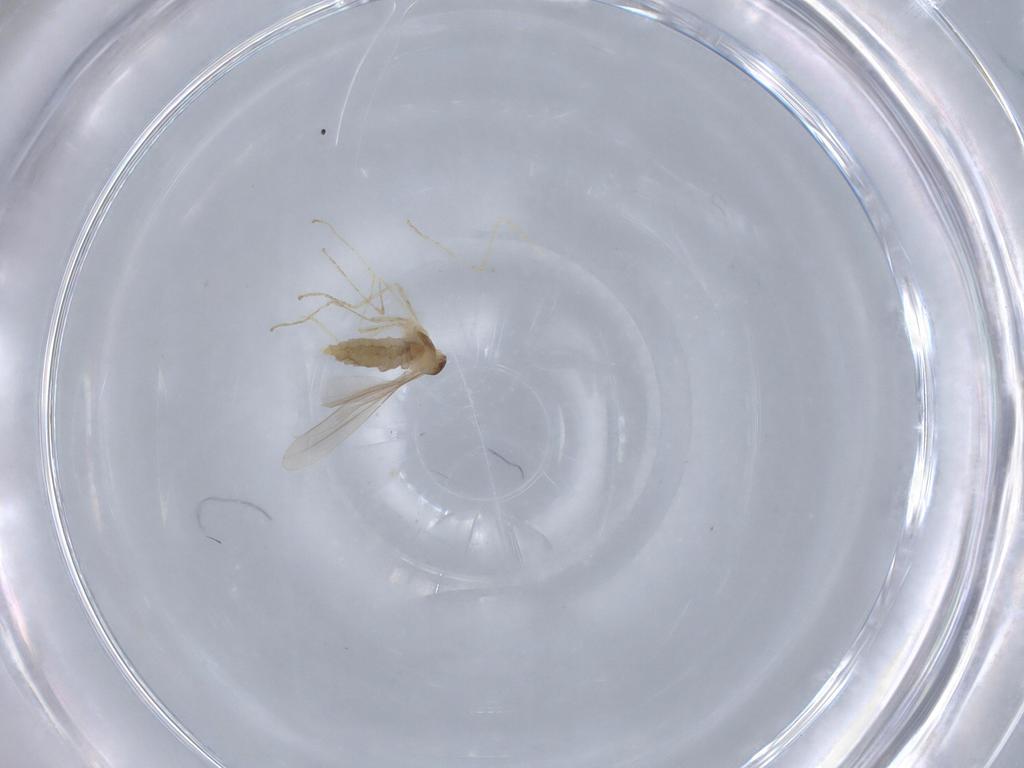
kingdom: Animalia
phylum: Arthropoda
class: Insecta
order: Diptera
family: Cecidomyiidae
